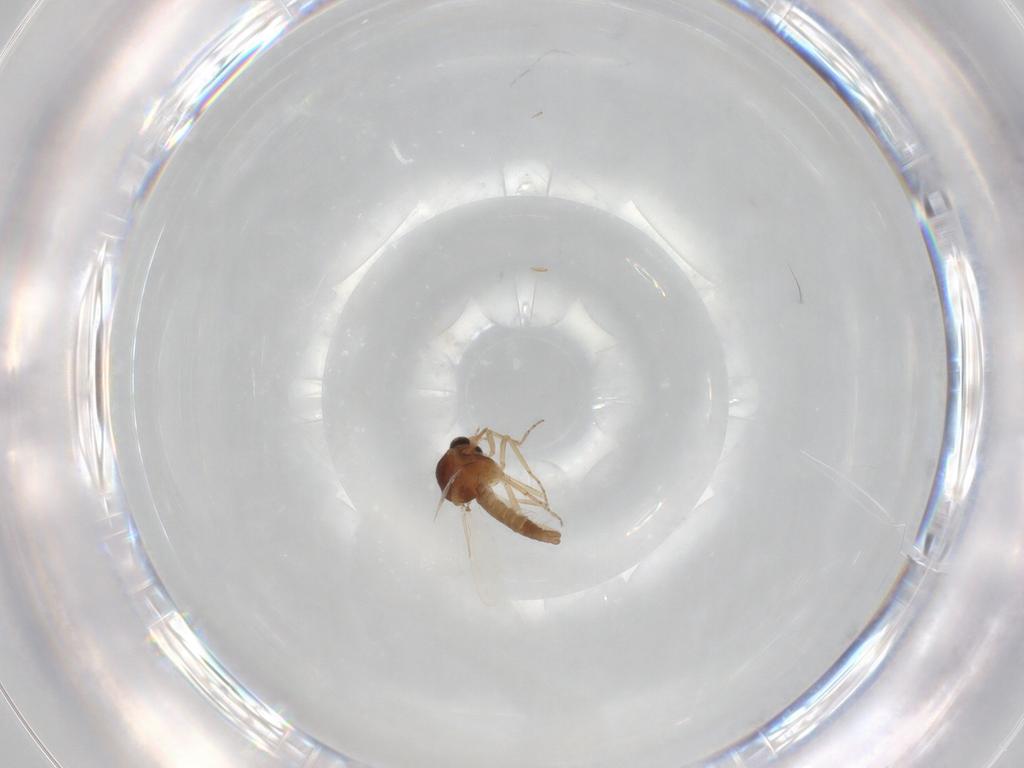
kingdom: Animalia
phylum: Arthropoda
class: Insecta
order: Diptera
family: Ceratopogonidae
